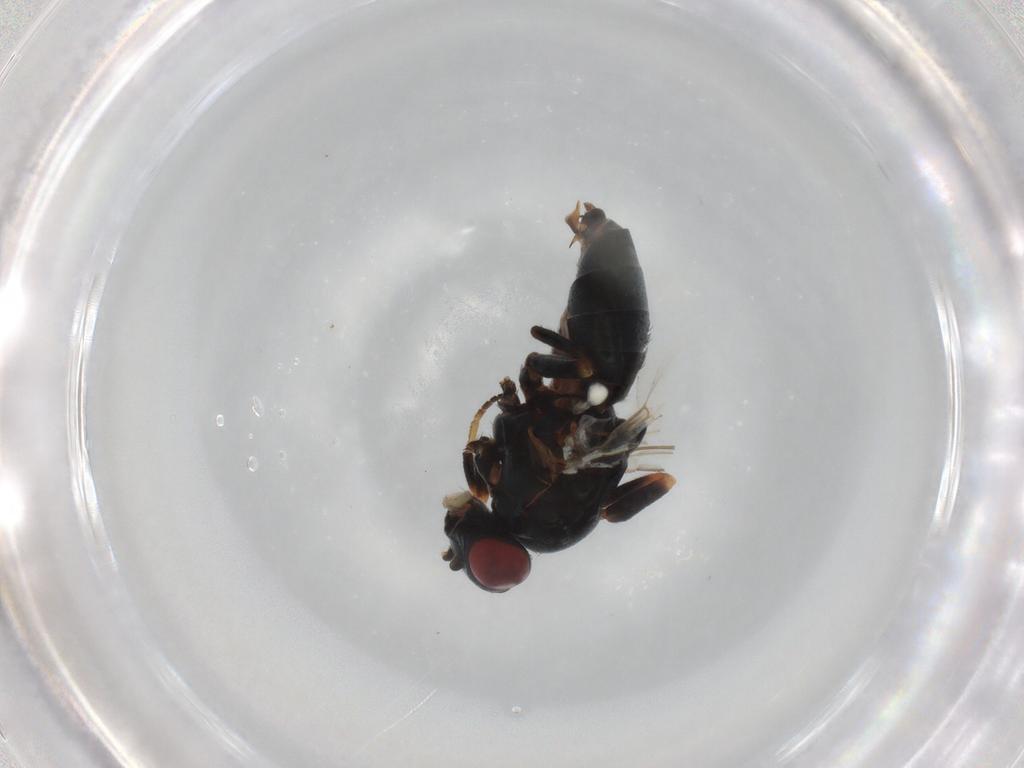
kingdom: Animalia
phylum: Arthropoda
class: Insecta
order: Diptera
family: Chamaemyiidae
